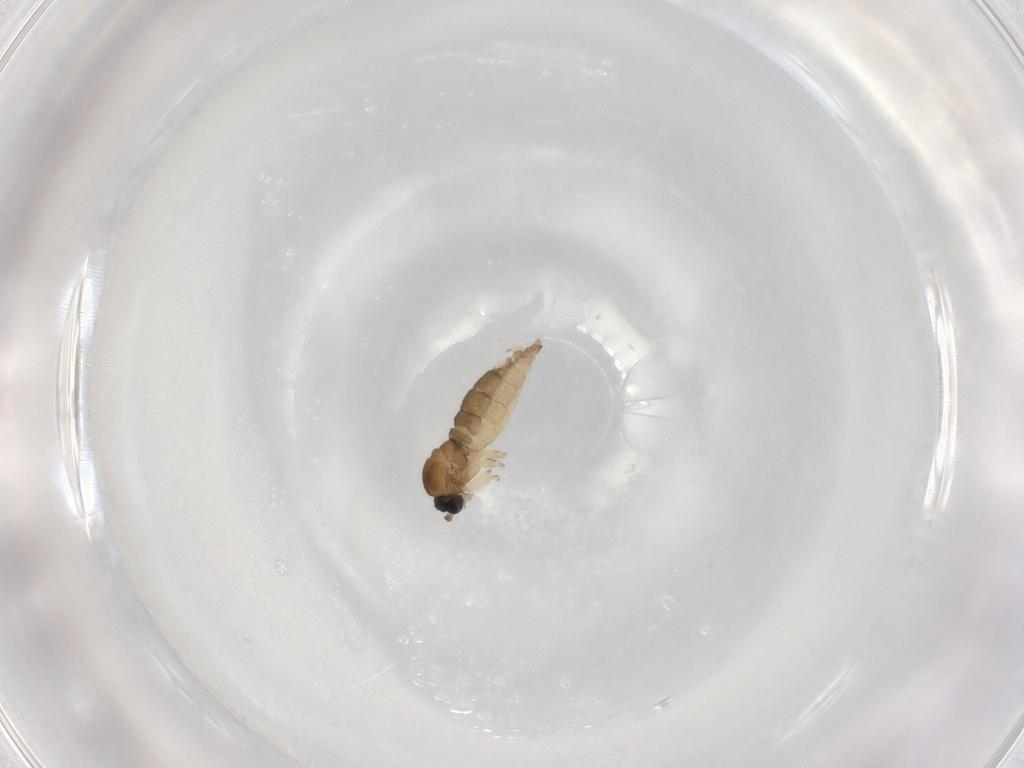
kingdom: Animalia
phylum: Arthropoda
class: Insecta
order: Diptera
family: Sciaridae
